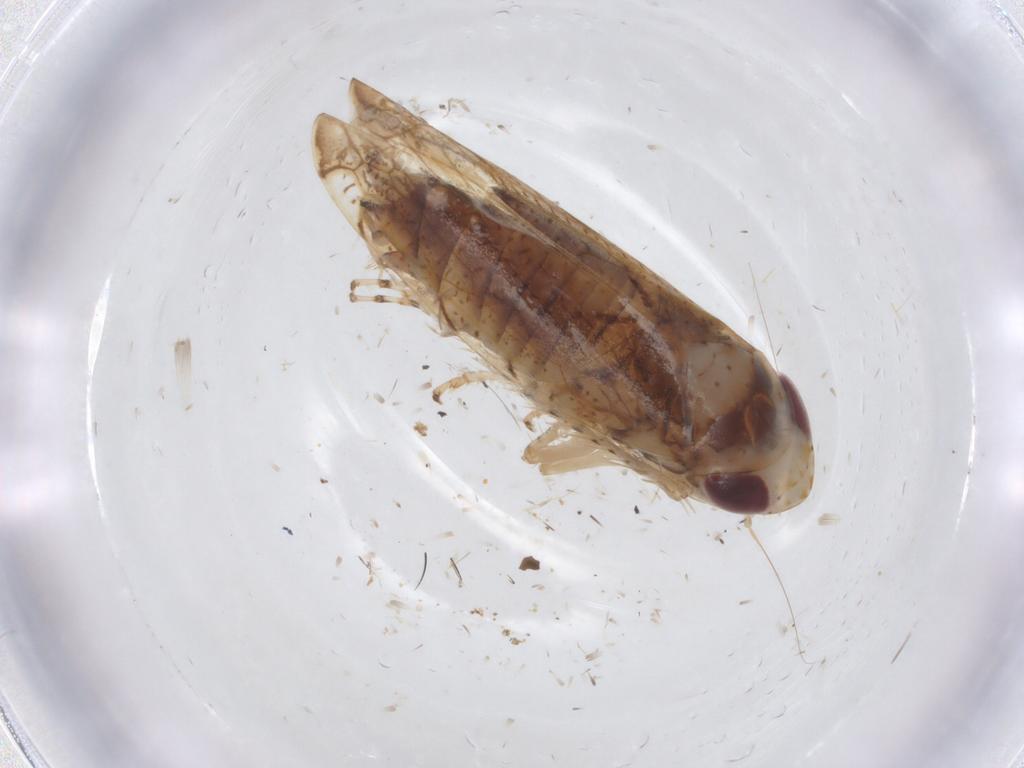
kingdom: Animalia
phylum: Arthropoda
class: Insecta
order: Hemiptera
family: Cicadellidae
